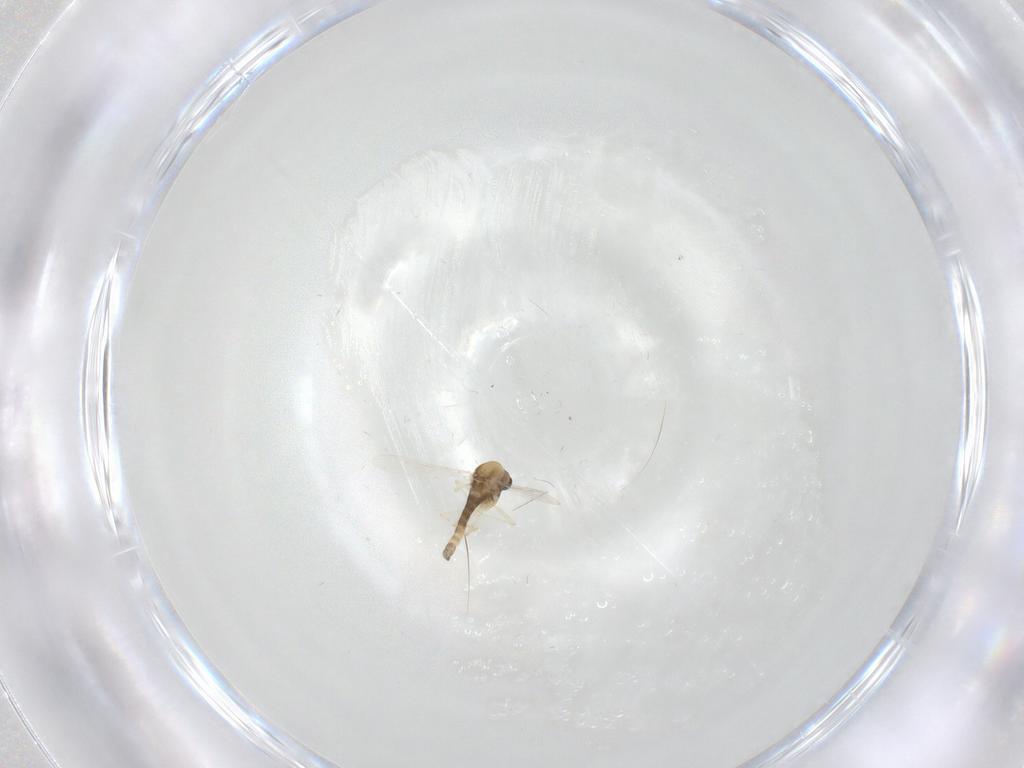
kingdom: Animalia
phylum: Arthropoda
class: Insecta
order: Diptera
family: Chironomidae
